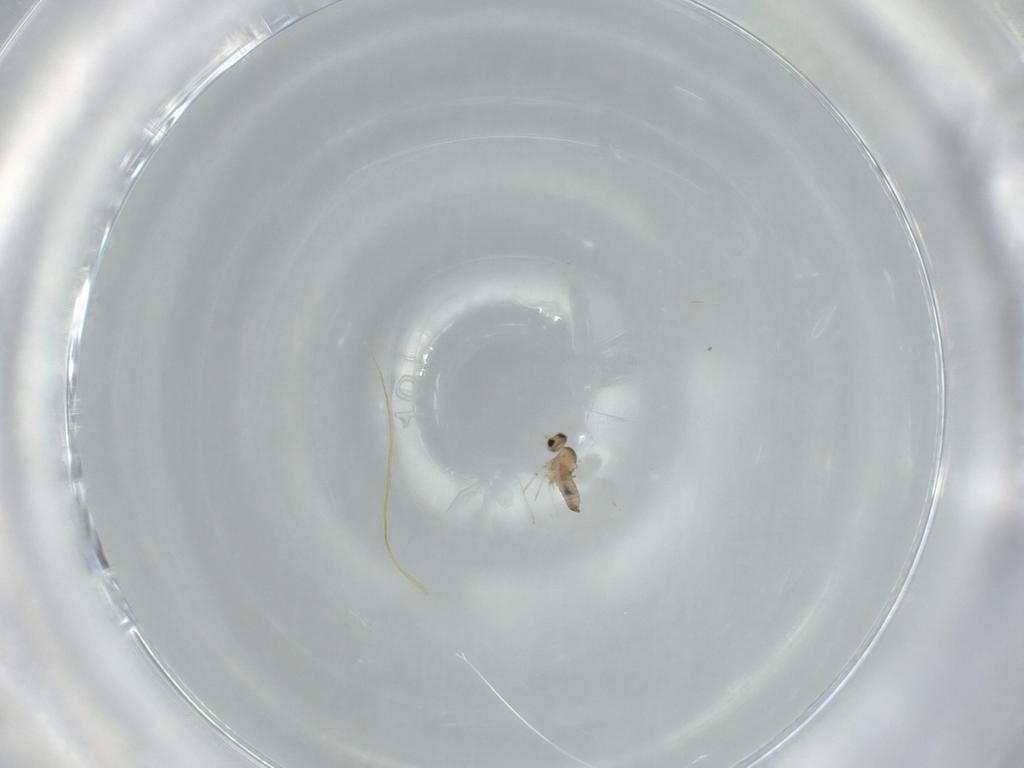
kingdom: Animalia
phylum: Arthropoda
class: Insecta
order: Diptera
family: Cecidomyiidae
